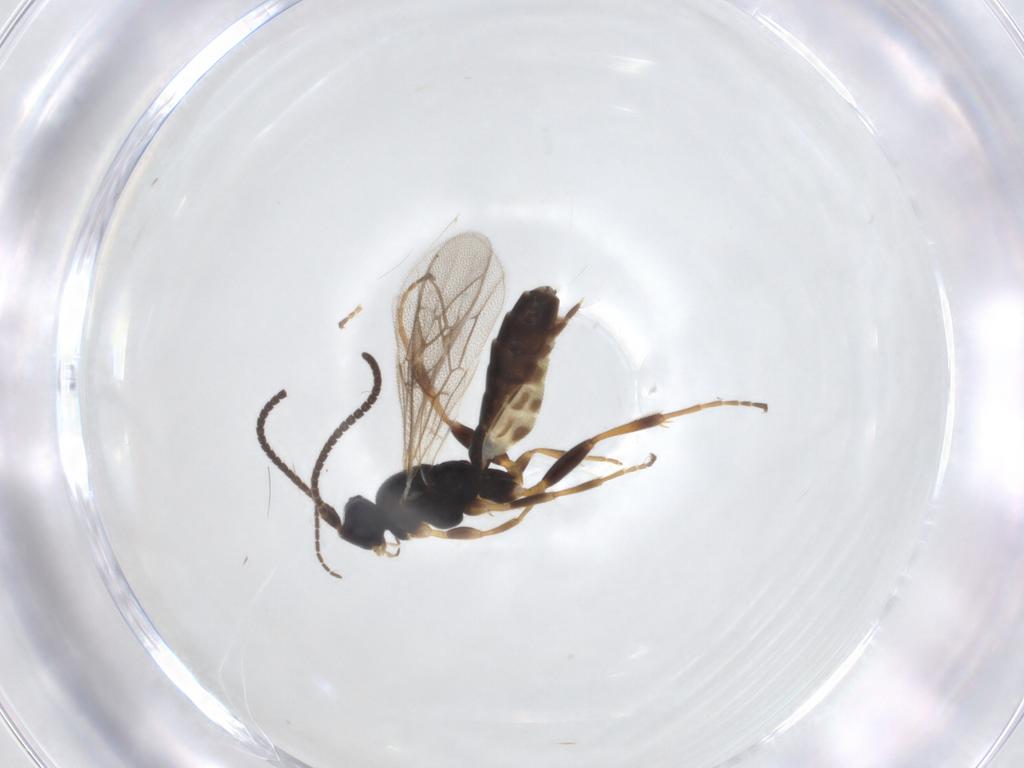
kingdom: Animalia
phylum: Arthropoda
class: Insecta
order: Hymenoptera
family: Ichneumonidae
